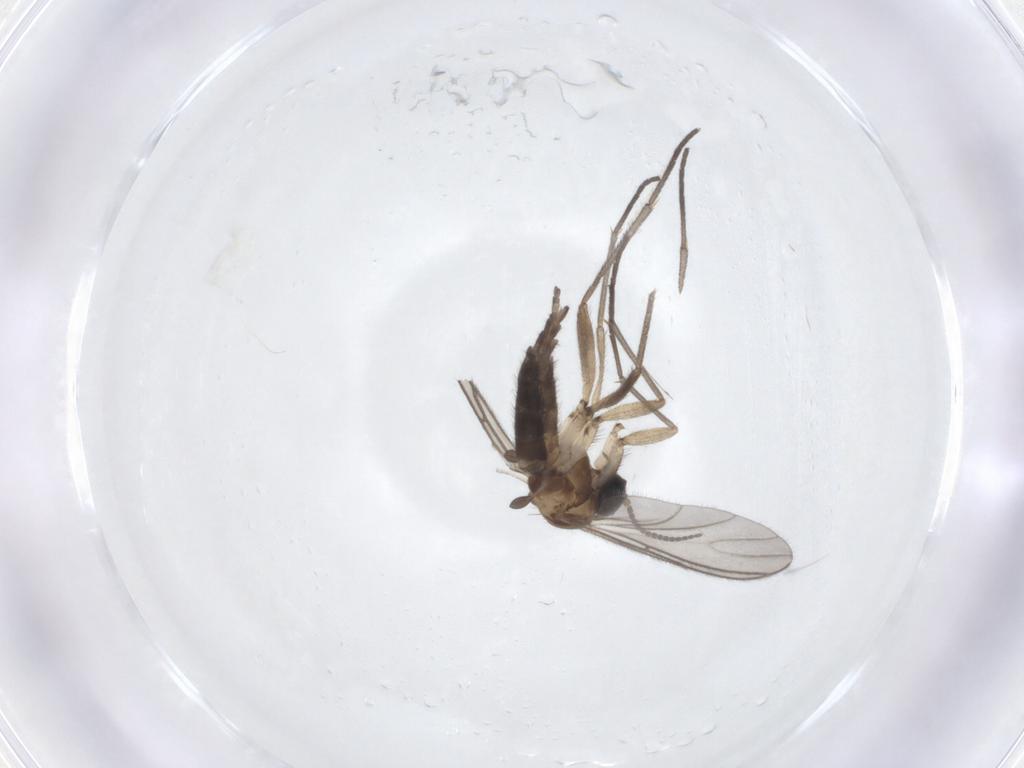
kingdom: Animalia
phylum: Arthropoda
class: Insecta
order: Diptera
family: Sciaridae
